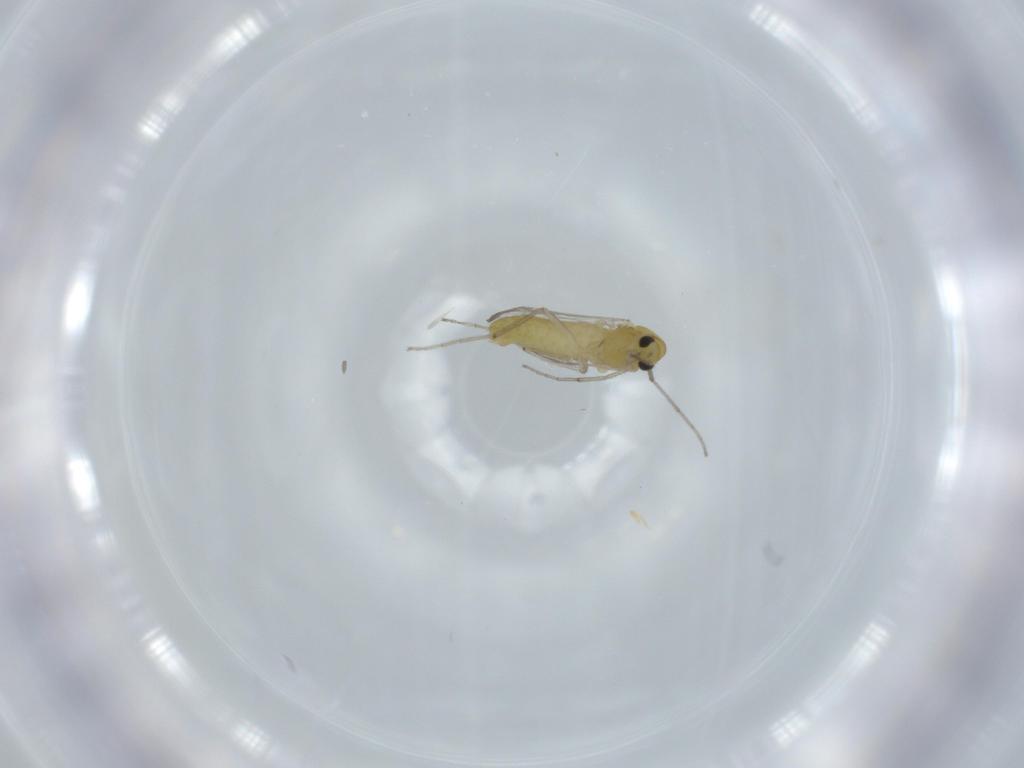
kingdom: Animalia
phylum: Arthropoda
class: Insecta
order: Diptera
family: Chironomidae
